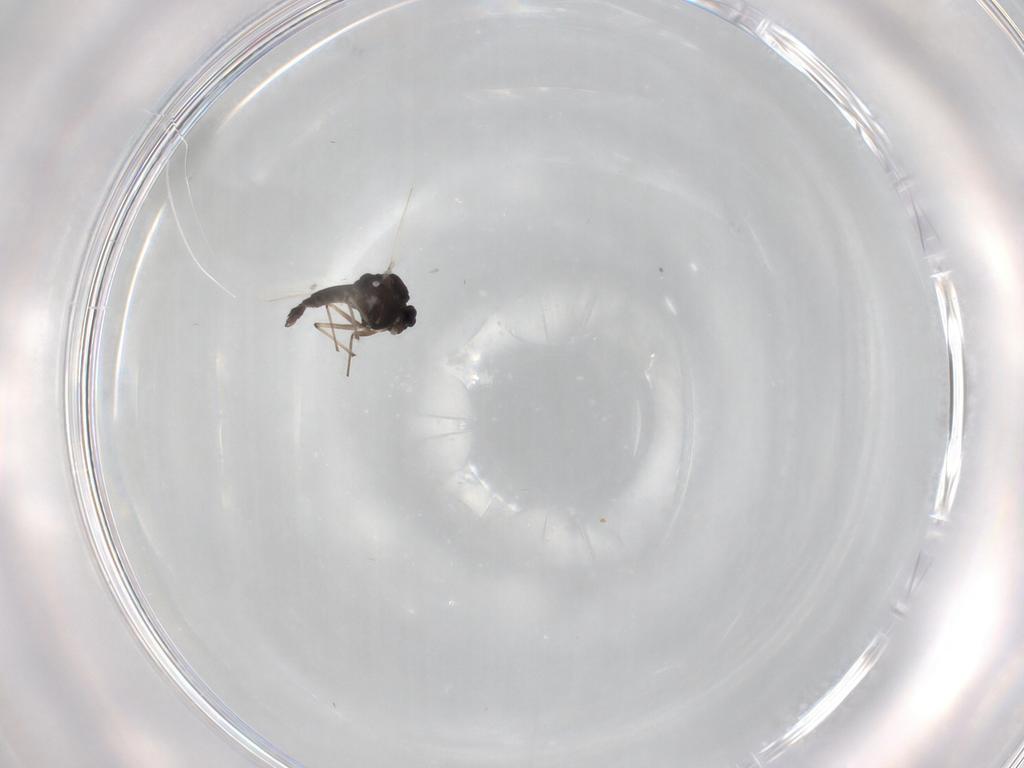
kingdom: Animalia
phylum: Arthropoda
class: Insecta
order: Diptera
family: Chironomidae
